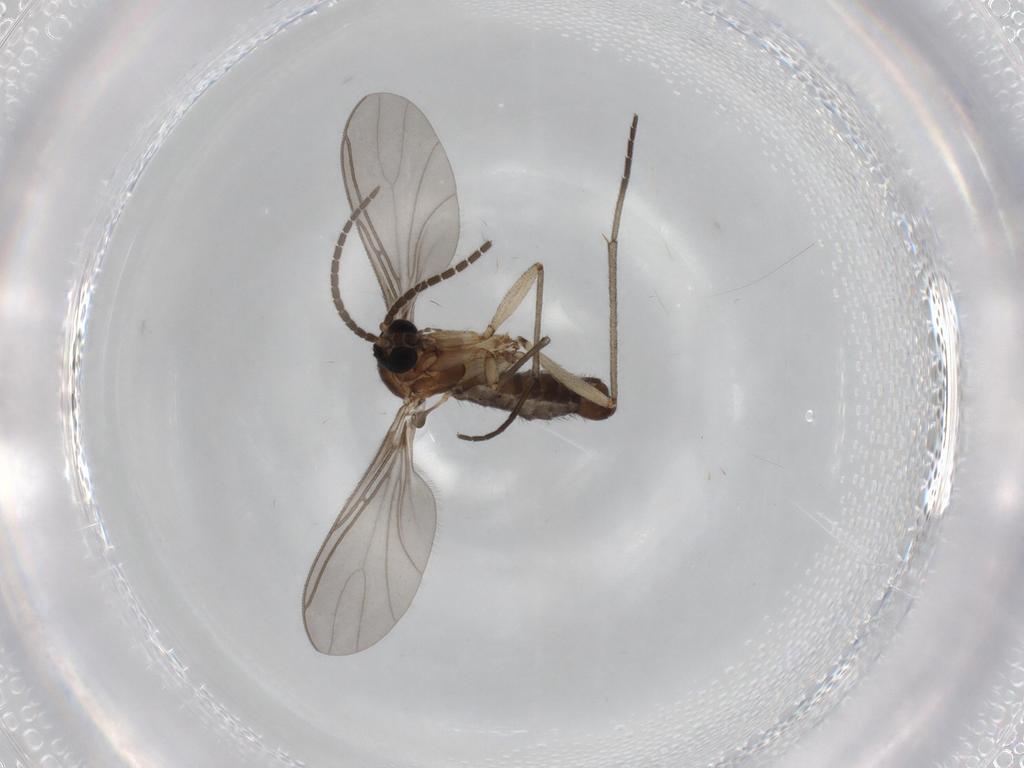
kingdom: Animalia
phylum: Arthropoda
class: Insecta
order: Diptera
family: Sciaridae
